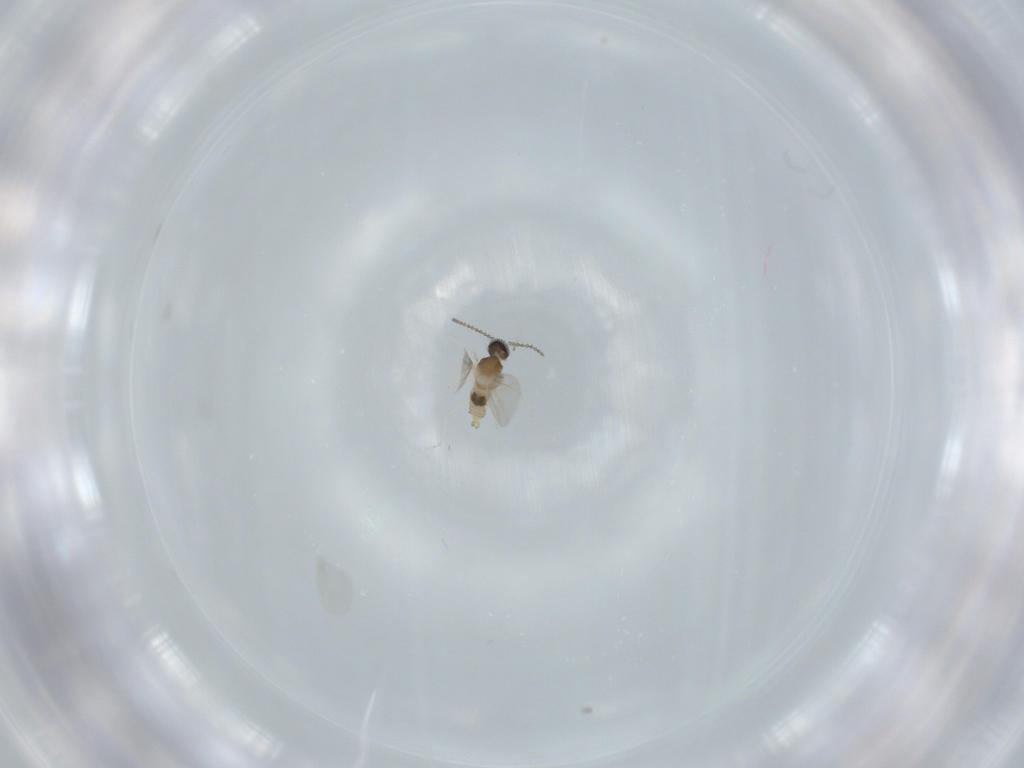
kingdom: Animalia
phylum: Arthropoda
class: Insecta
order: Diptera
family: Cecidomyiidae
